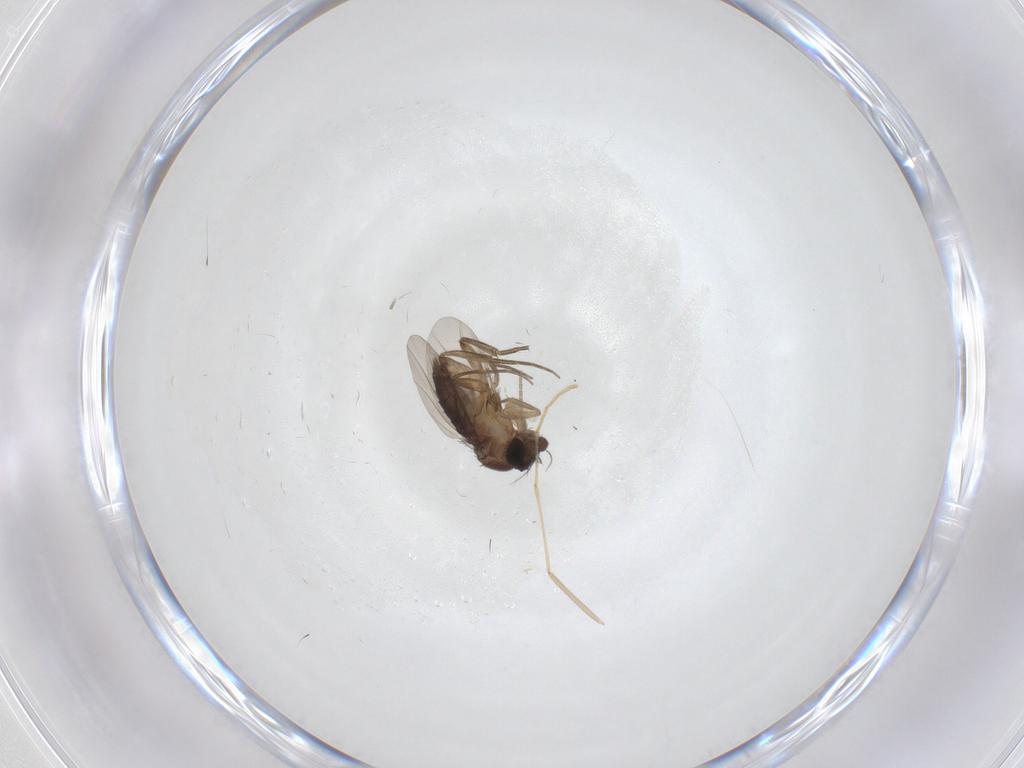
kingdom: Animalia
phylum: Arthropoda
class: Insecta
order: Diptera
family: Phoridae
